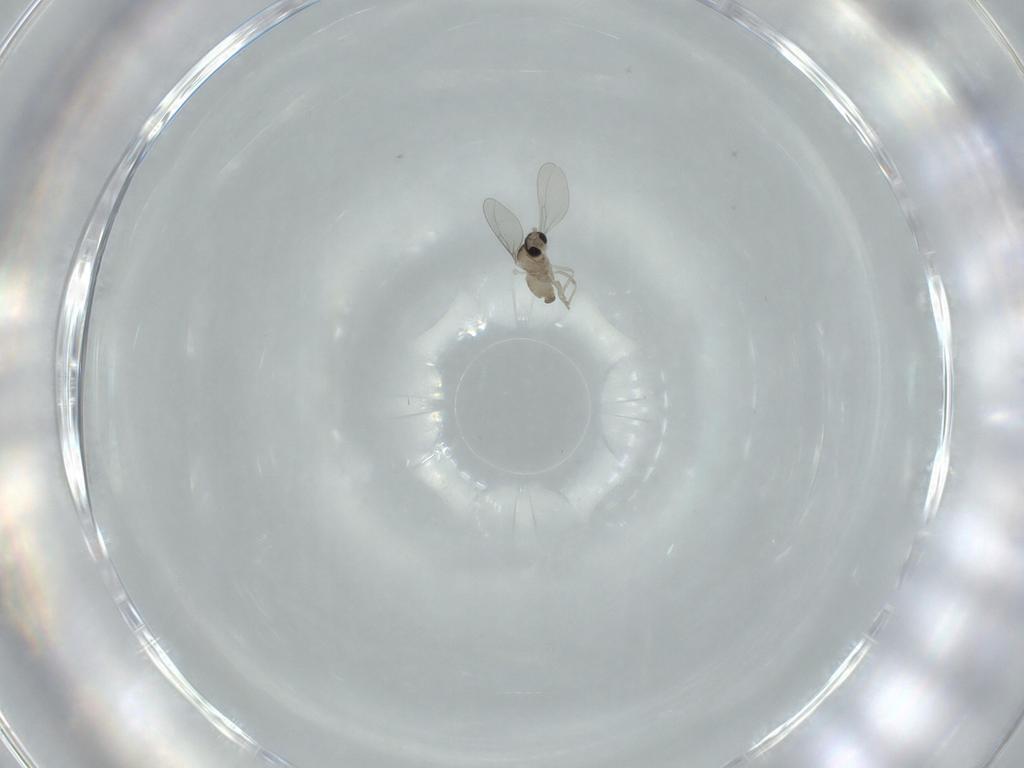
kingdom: Animalia
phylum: Arthropoda
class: Insecta
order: Diptera
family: Cecidomyiidae
